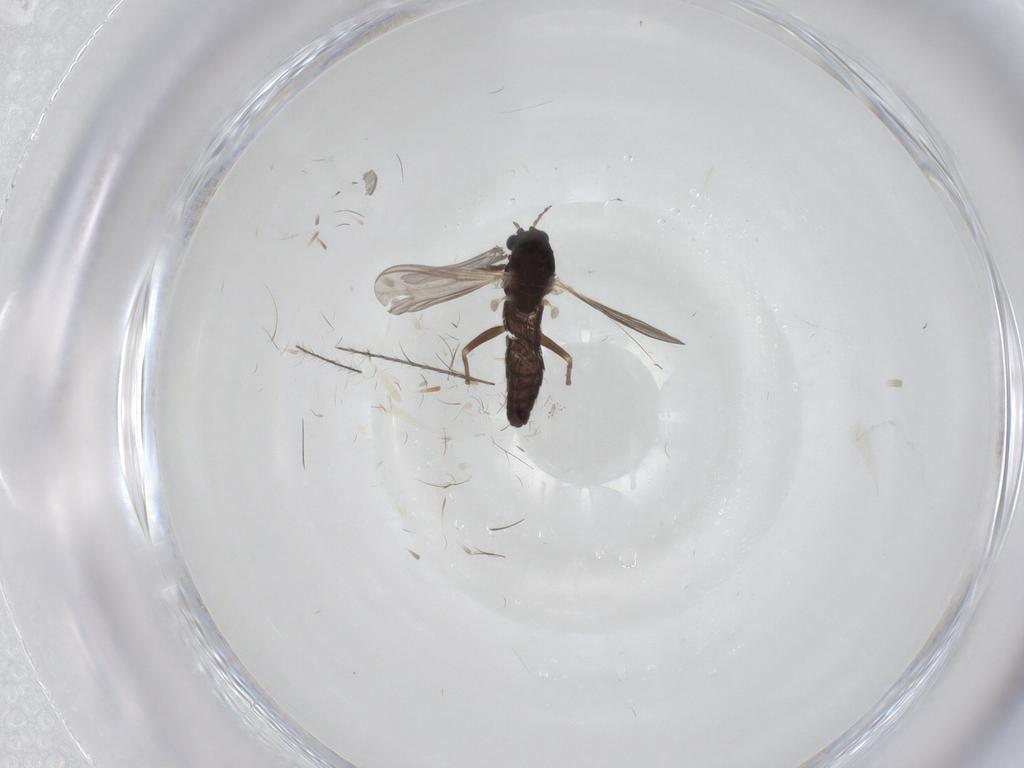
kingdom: Animalia
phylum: Arthropoda
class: Insecta
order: Diptera
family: Chironomidae
